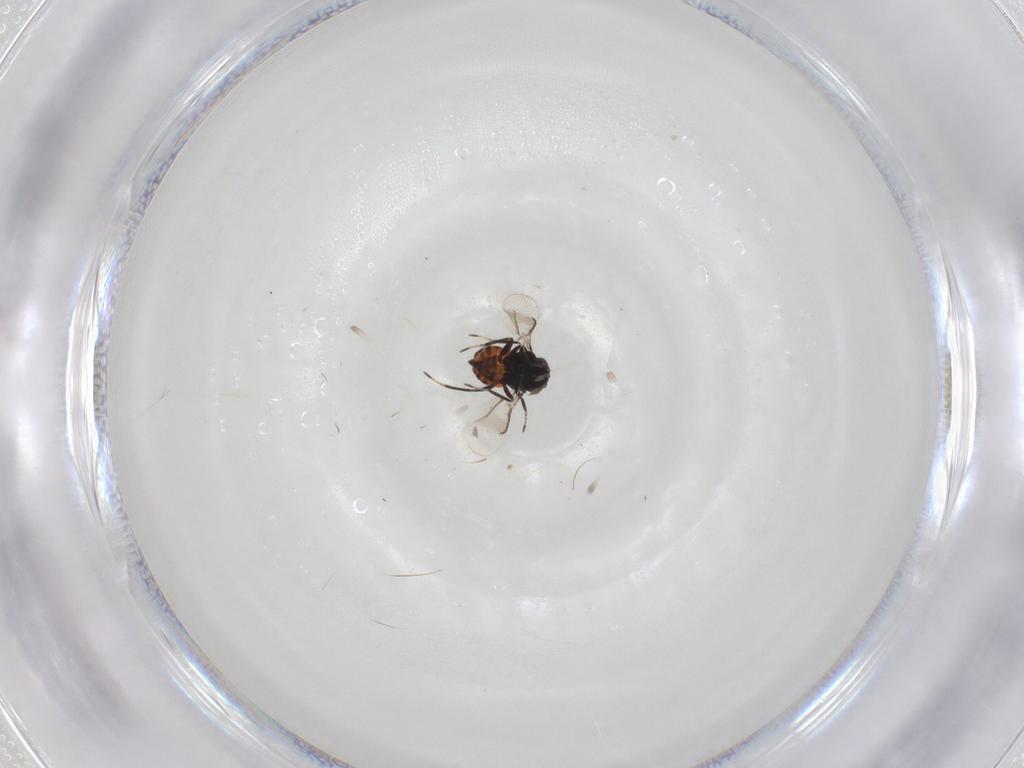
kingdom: Animalia
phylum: Arthropoda
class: Insecta
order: Hymenoptera
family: Eulophidae
